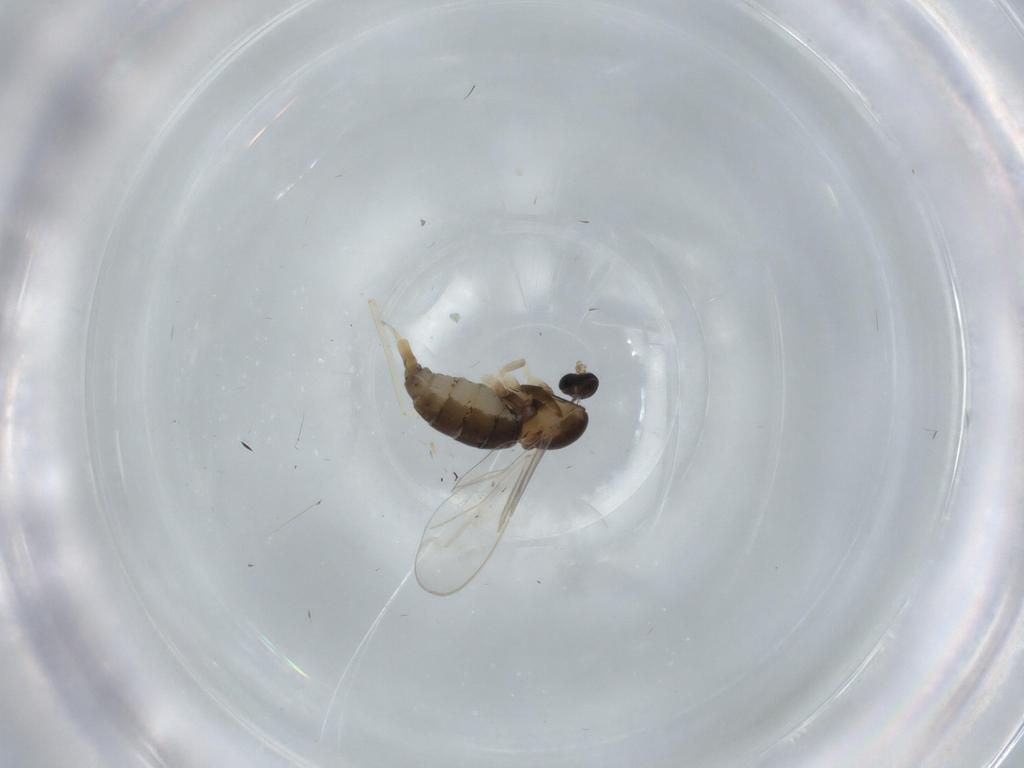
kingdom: Animalia
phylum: Arthropoda
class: Insecta
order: Diptera
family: Cecidomyiidae
